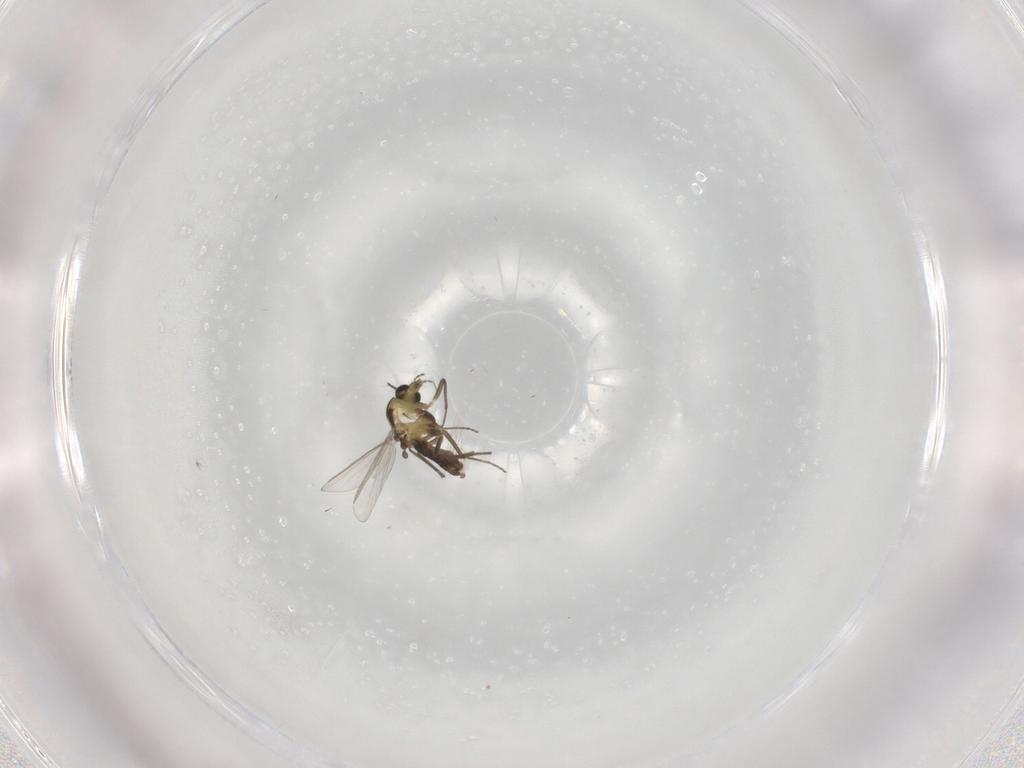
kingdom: Animalia
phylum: Arthropoda
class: Insecta
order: Diptera
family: Chironomidae
